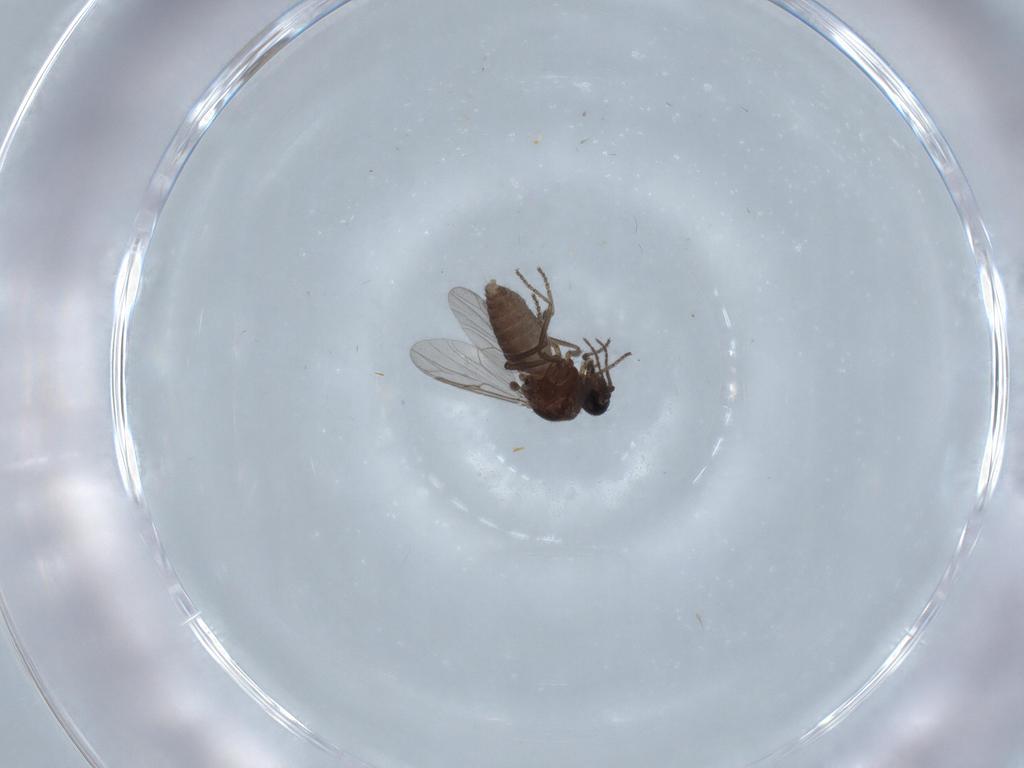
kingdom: Animalia
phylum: Arthropoda
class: Insecta
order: Diptera
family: Ceratopogonidae
